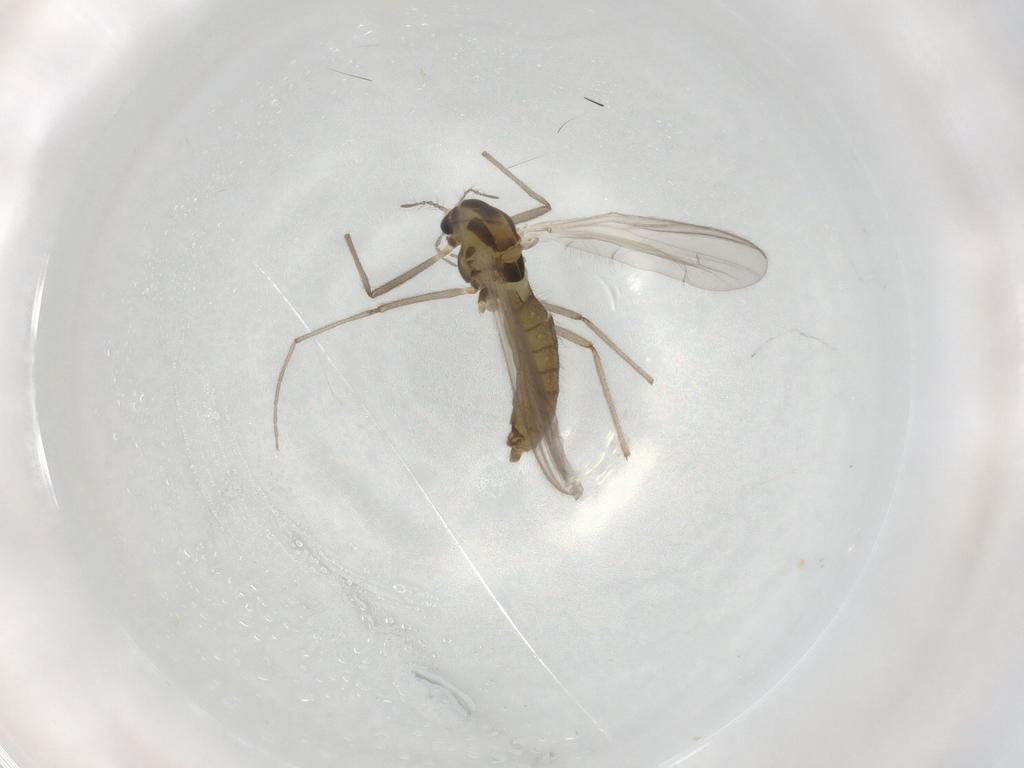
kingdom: Animalia
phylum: Arthropoda
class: Insecta
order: Diptera
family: Chironomidae
